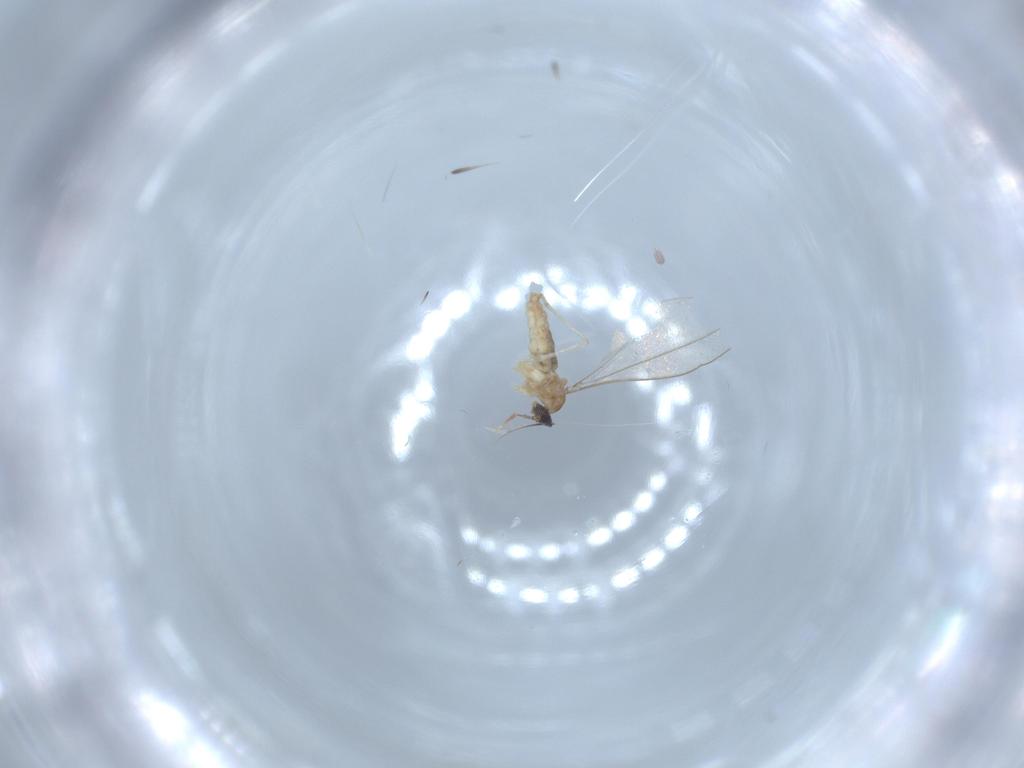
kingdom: Animalia
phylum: Arthropoda
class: Insecta
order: Diptera
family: Cecidomyiidae
